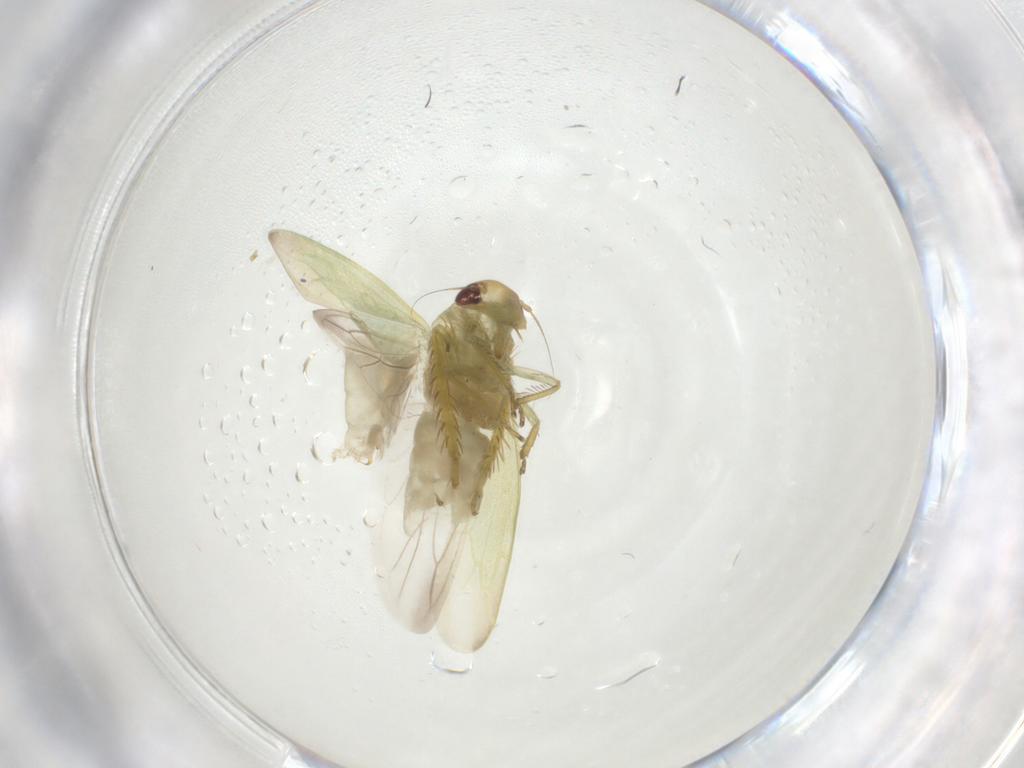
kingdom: Animalia
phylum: Arthropoda
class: Insecta
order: Hemiptera
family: Cicadellidae
